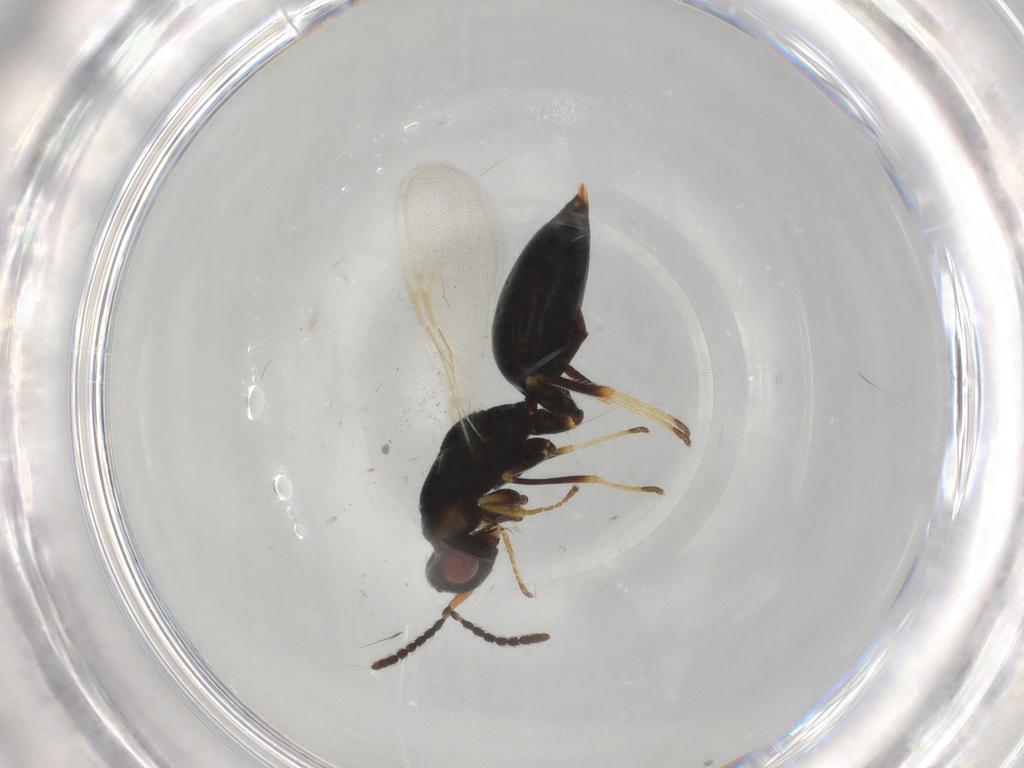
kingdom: Animalia
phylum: Arthropoda
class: Insecta
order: Hymenoptera
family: Eurytomidae
